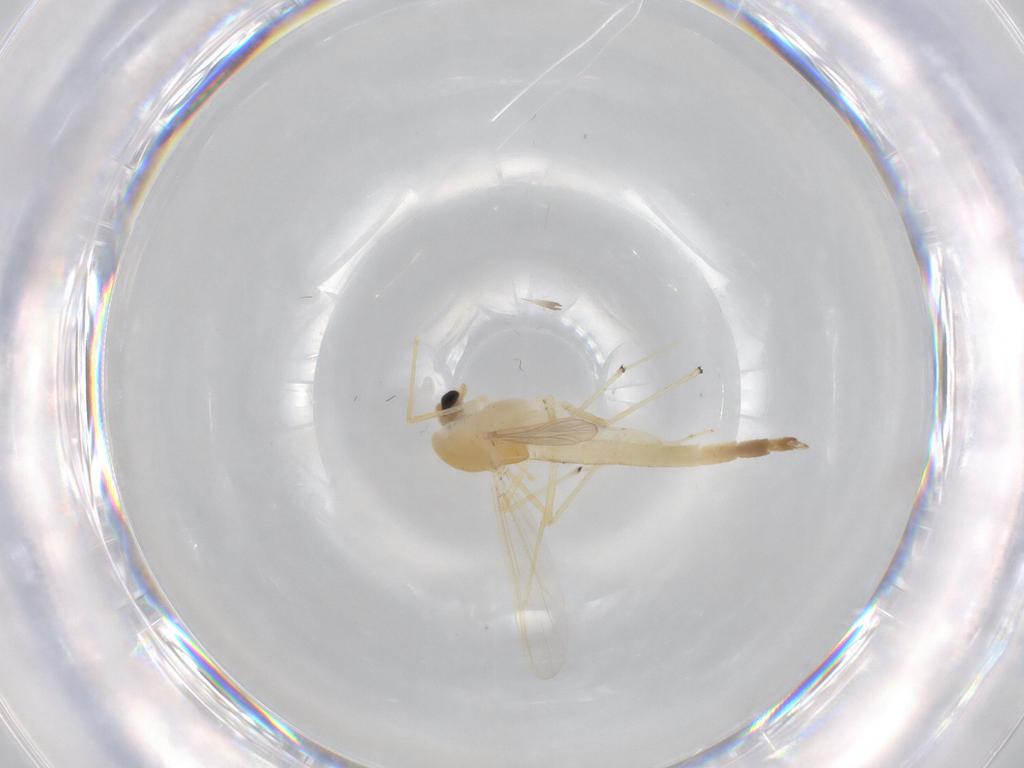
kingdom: Animalia
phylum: Arthropoda
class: Insecta
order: Diptera
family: Chironomidae
